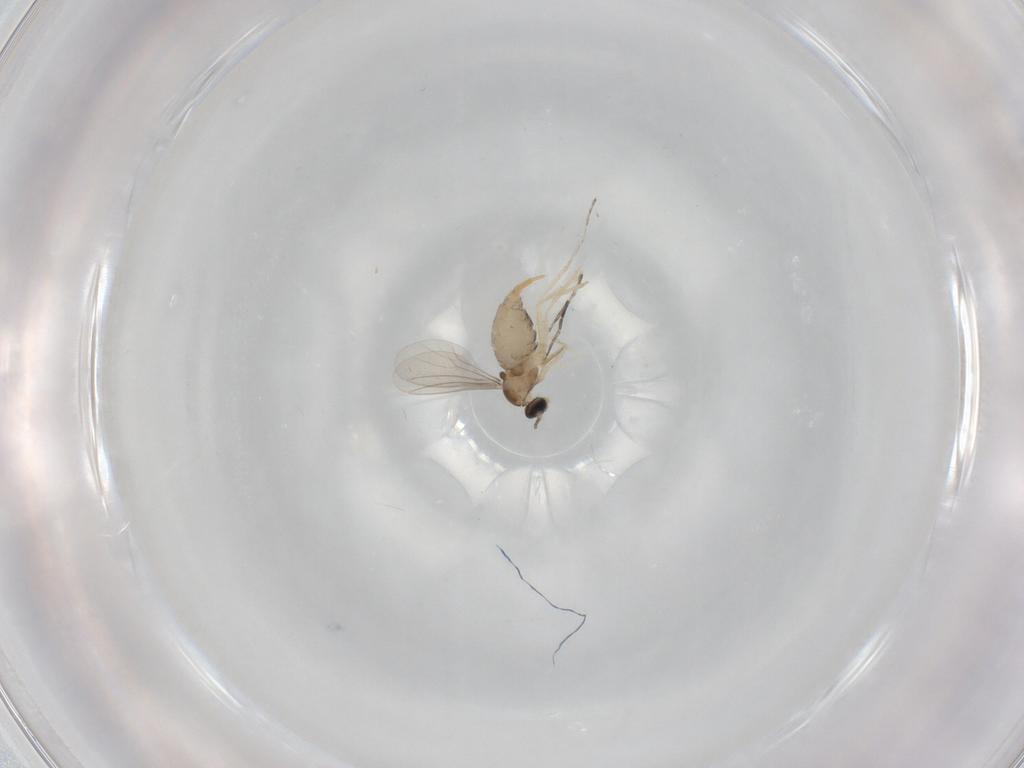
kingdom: Animalia
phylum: Arthropoda
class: Insecta
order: Diptera
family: Cecidomyiidae
